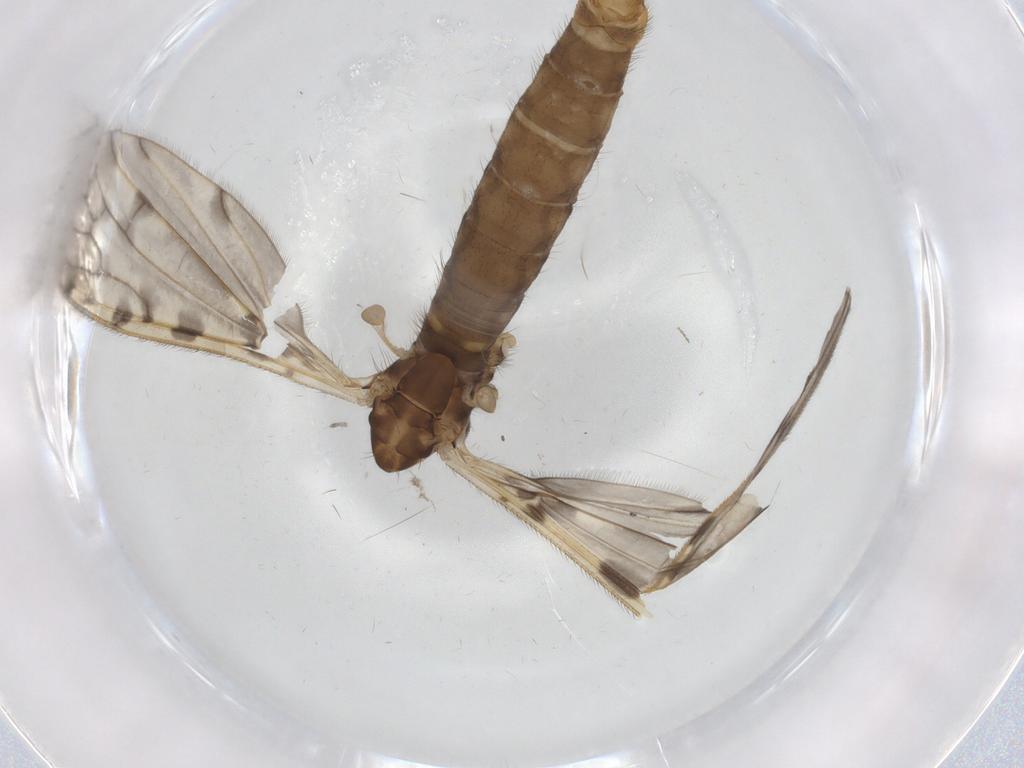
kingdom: Animalia
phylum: Arthropoda
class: Insecta
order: Diptera
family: Limoniidae
